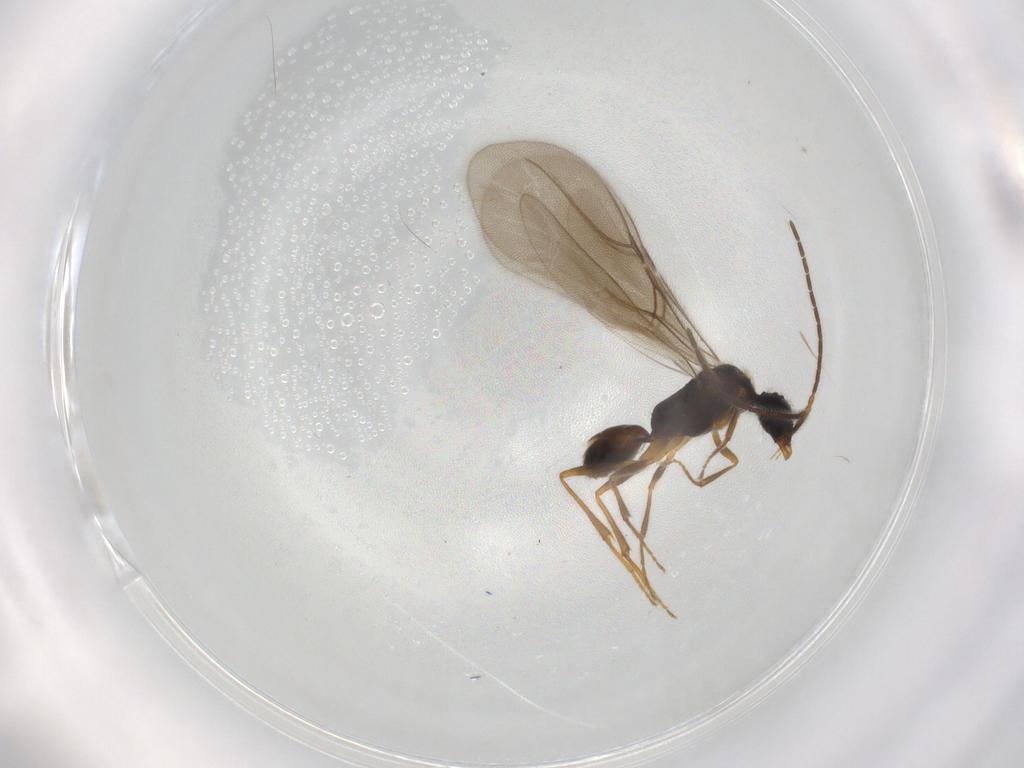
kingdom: Animalia
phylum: Arthropoda
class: Insecta
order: Hymenoptera
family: Bethylidae
